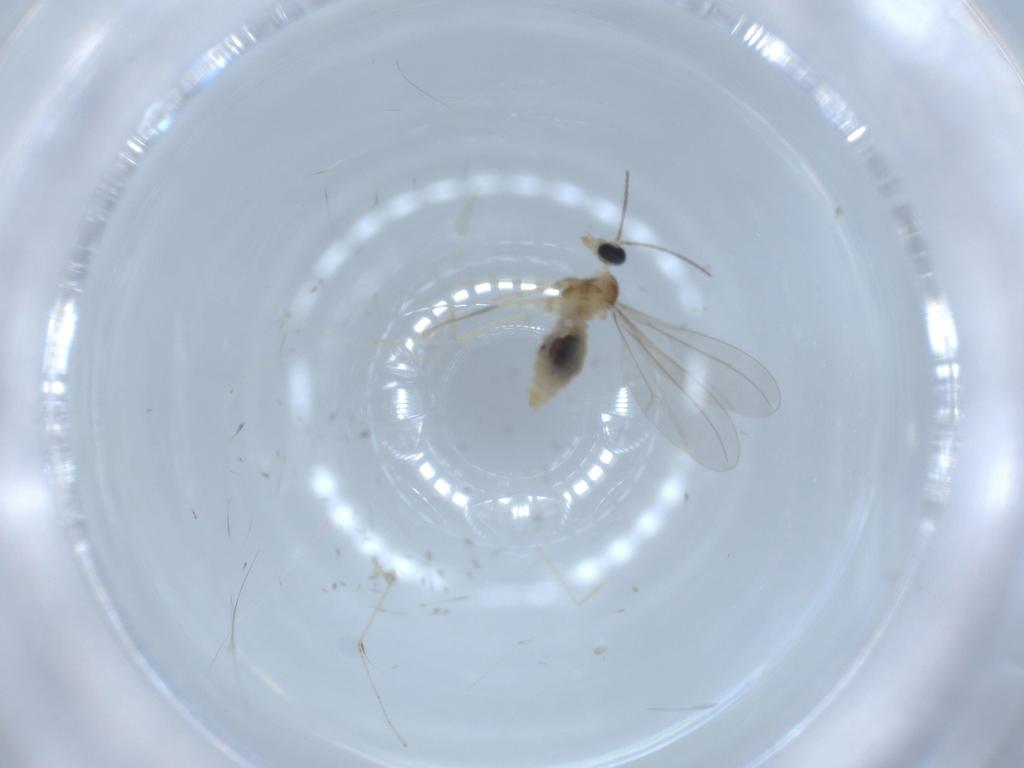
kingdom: Animalia
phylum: Arthropoda
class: Insecta
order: Diptera
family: Cecidomyiidae
